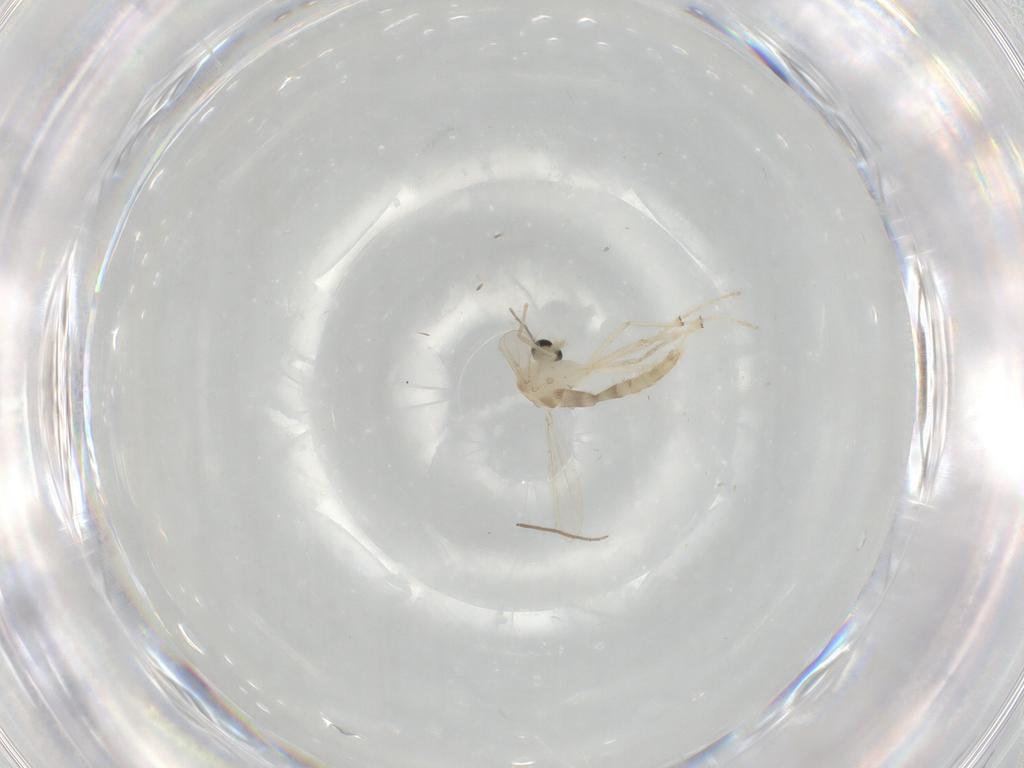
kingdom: Animalia
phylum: Arthropoda
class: Insecta
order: Diptera
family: Chironomidae
